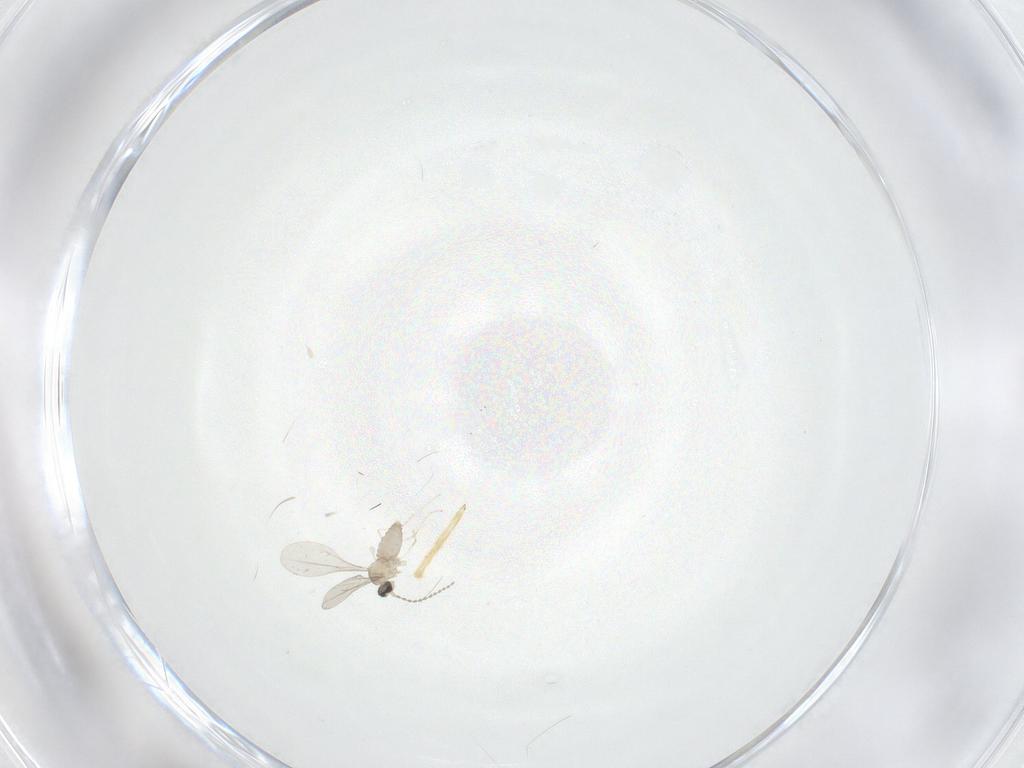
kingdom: Animalia
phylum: Arthropoda
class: Insecta
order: Diptera
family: Cecidomyiidae
